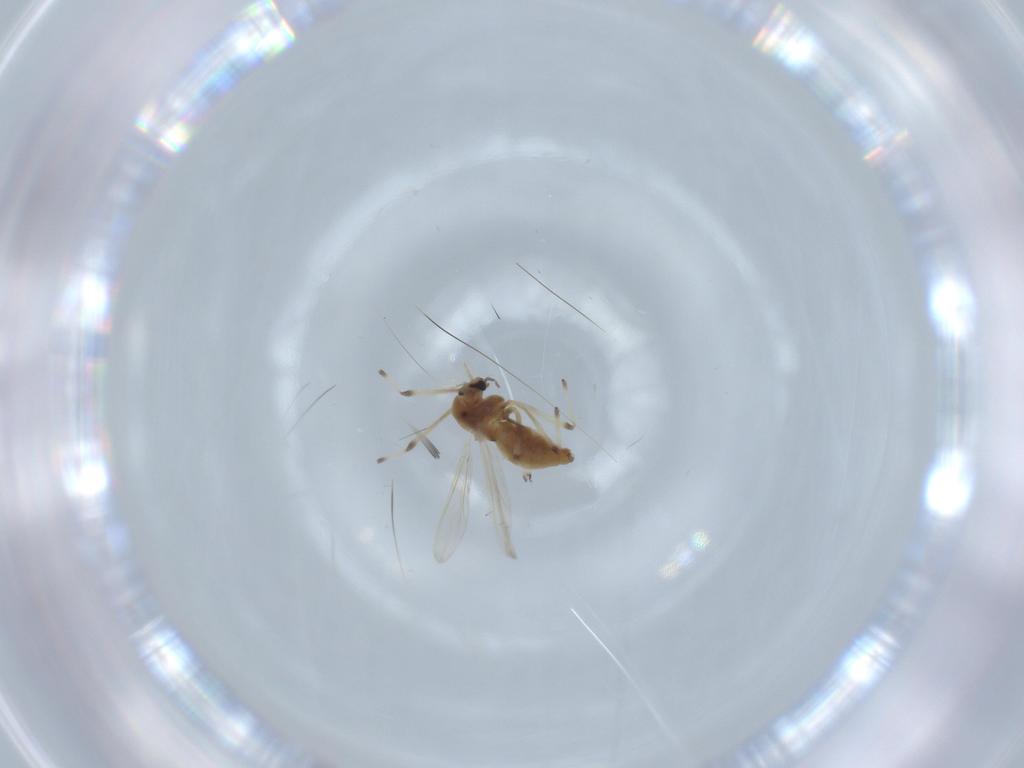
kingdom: Animalia
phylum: Arthropoda
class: Insecta
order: Diptera
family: Chironomidae
